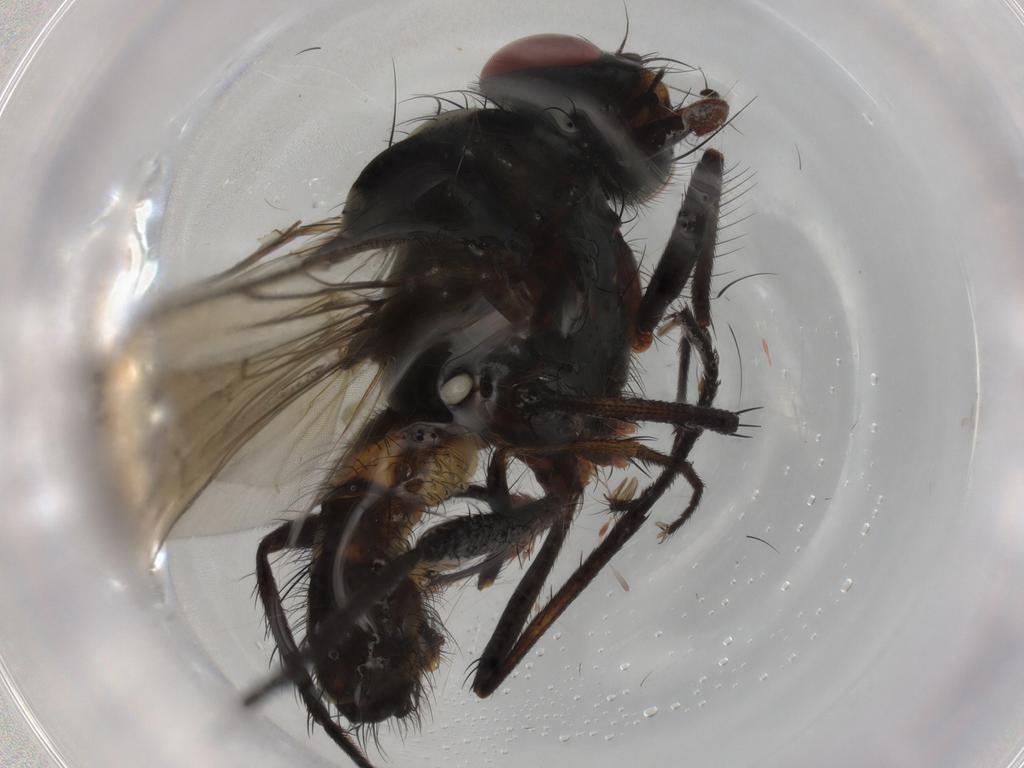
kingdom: Animalia
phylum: Arthropoda
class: Insecta
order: Diptera
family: Anthomyiidae
